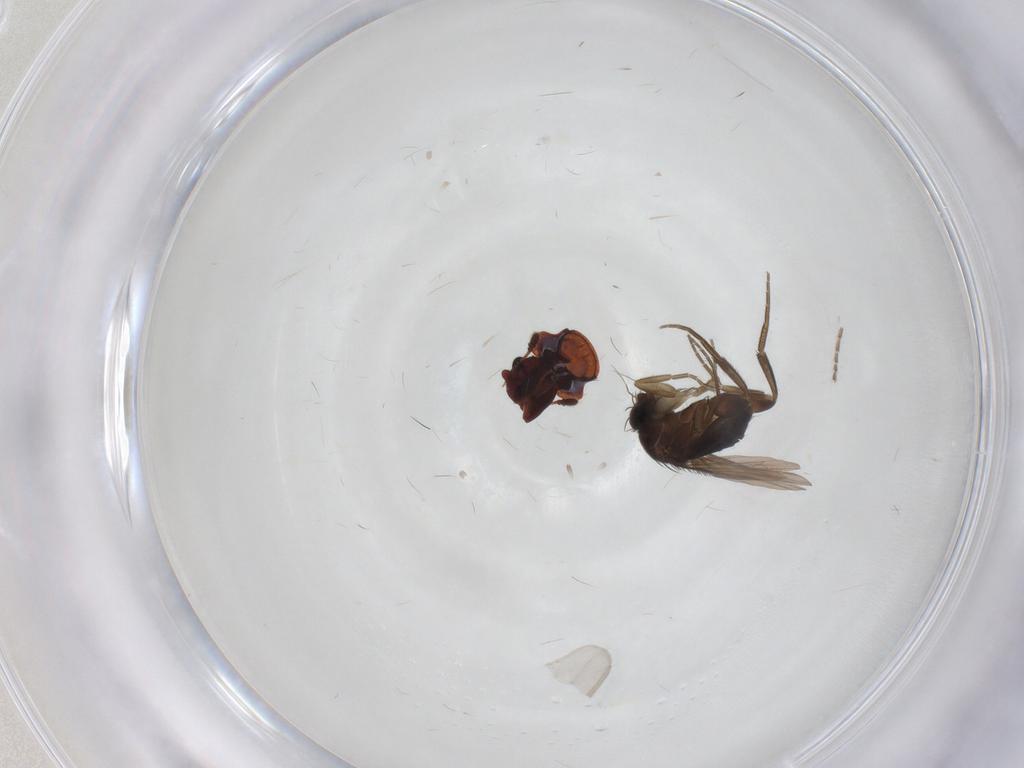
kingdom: Animalia
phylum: Arthropoda
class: Insecta
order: Diptera
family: Phoridae
